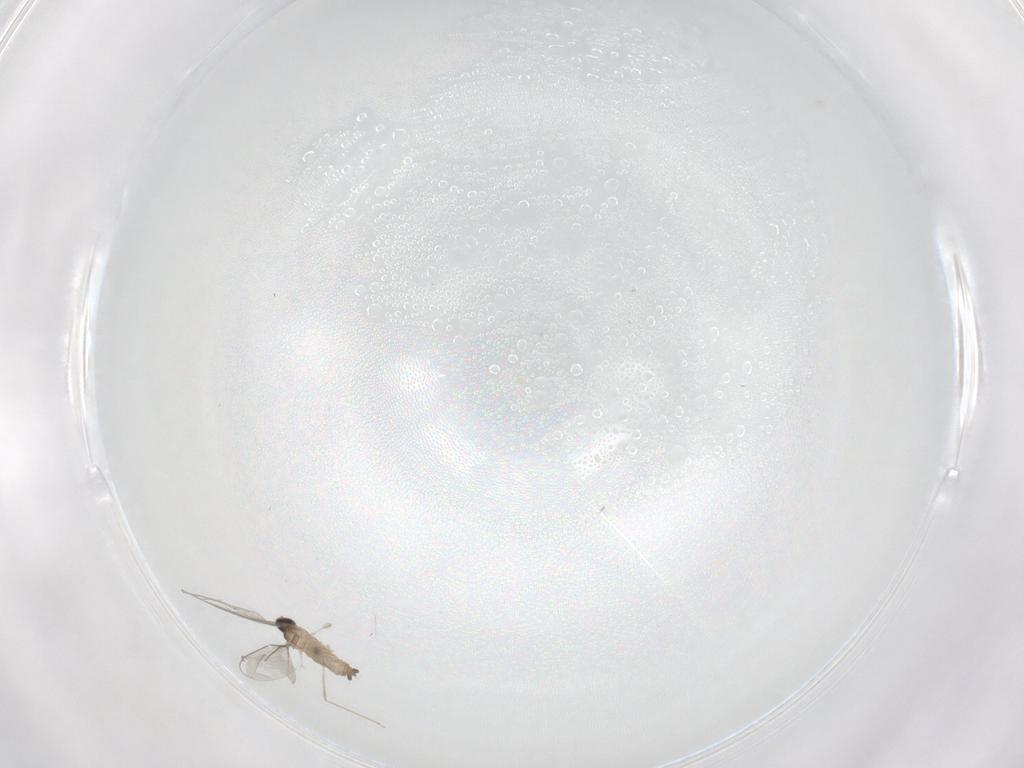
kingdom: Animalia
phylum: Arthropoda
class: Insecta
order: Diptera
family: Cecidomyiidae
